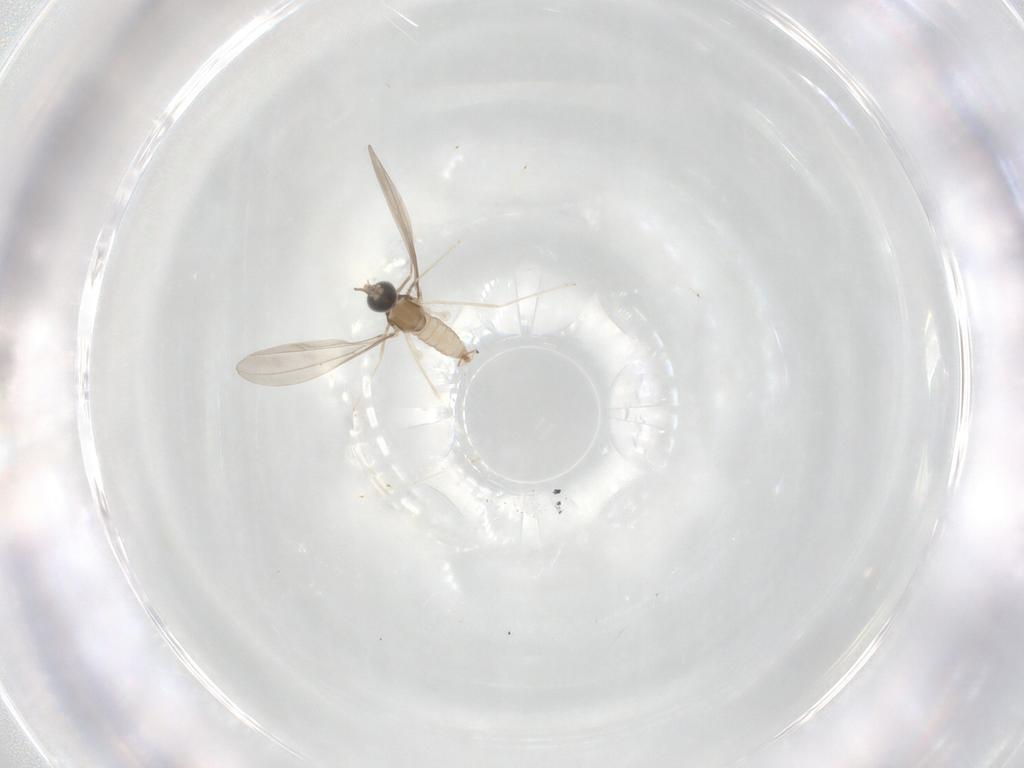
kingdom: Animalia
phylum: Arthropoda
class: Insecta
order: Diptera
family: Cecidomyiidae
